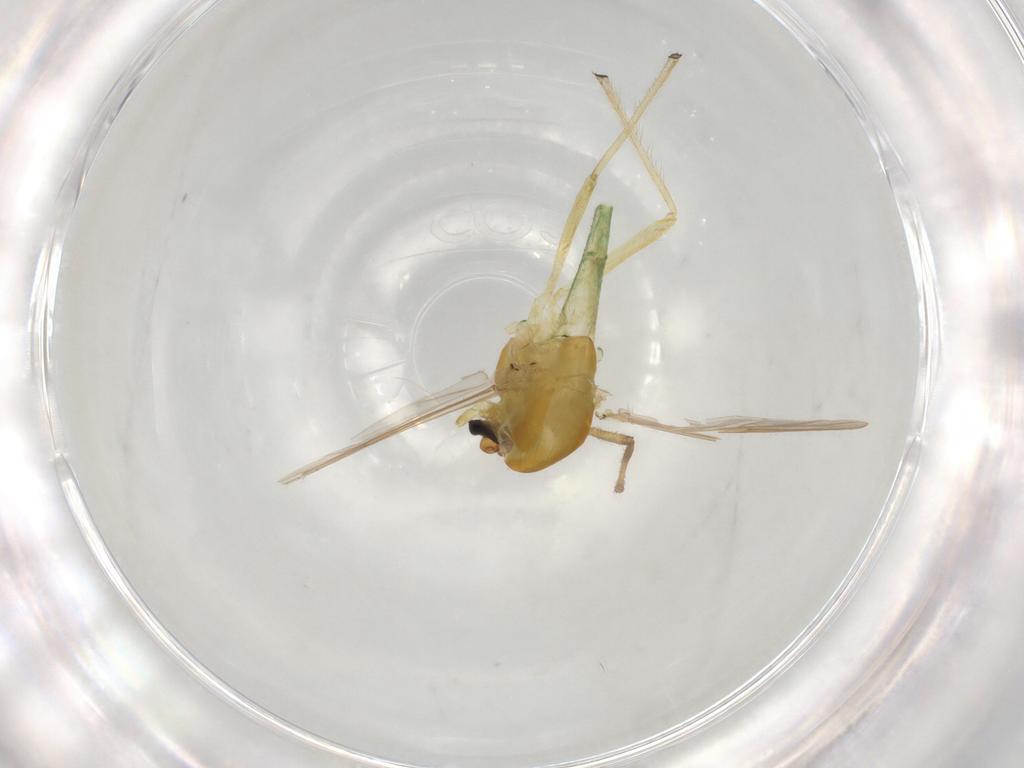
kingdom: Animalia
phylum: Arthropoda
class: Insecta
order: Diptera
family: Chironomidae
